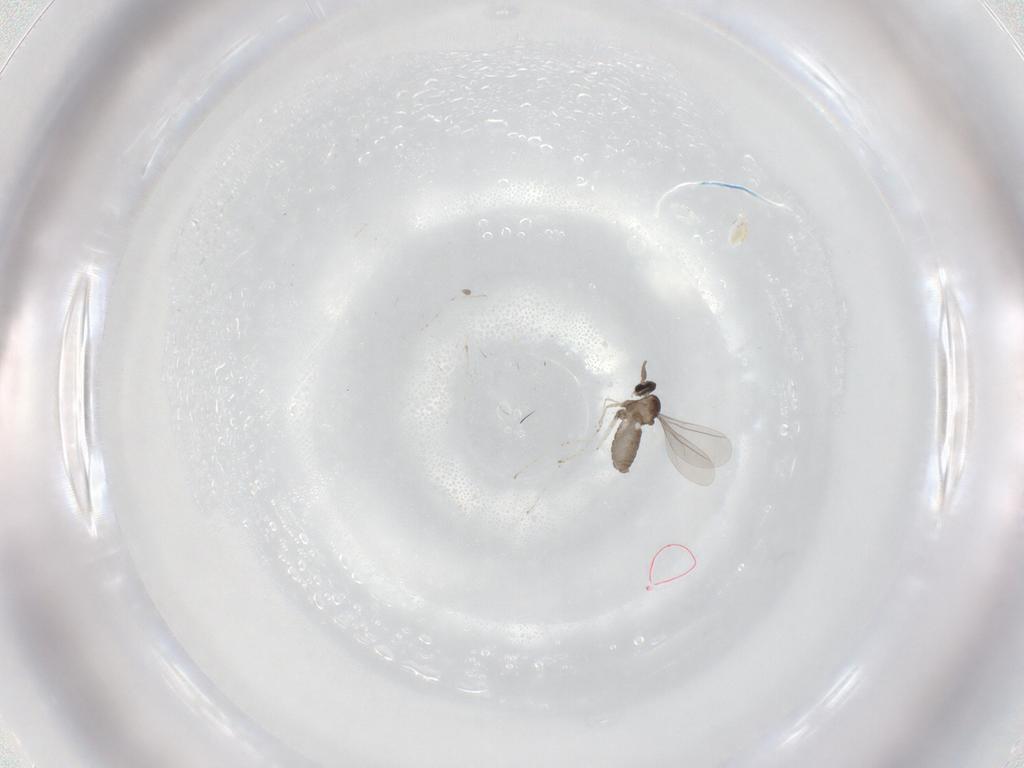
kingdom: Animalia
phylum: Arthropoda
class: Insecta
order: Diptera
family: Cecidomyiidae
